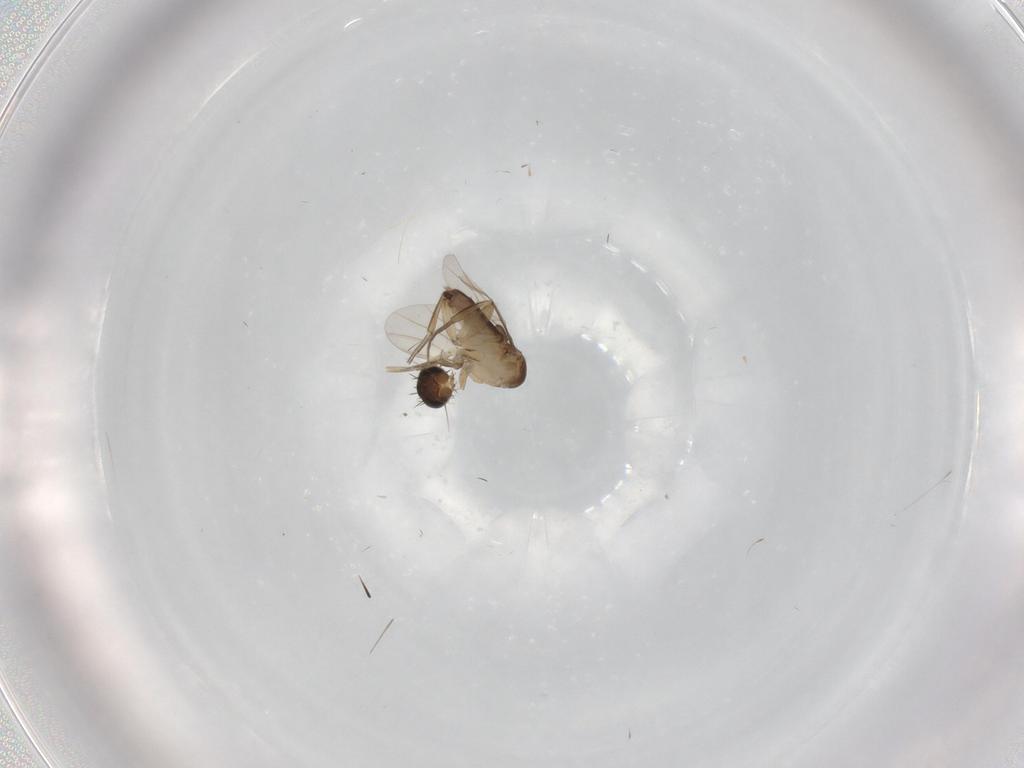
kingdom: Animalia
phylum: Arthropoda
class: Insecta
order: Diptera
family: Phoridae
